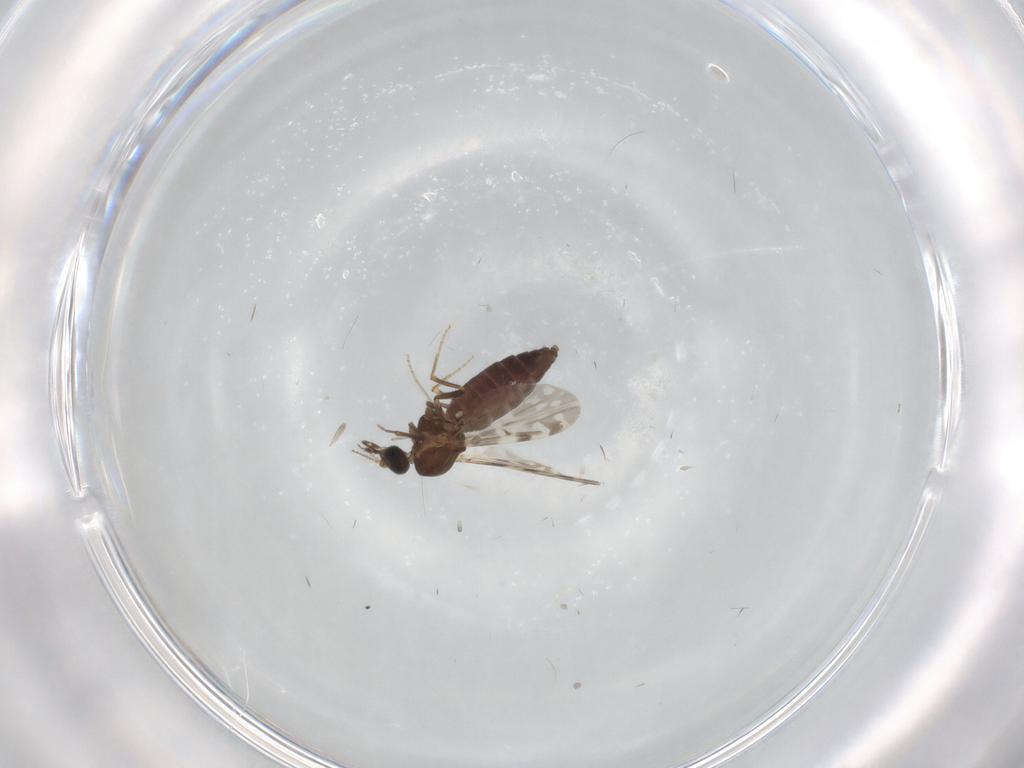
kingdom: Animalia
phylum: Arthropoda
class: Insecta
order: Diptera
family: Ceratopogonidae
